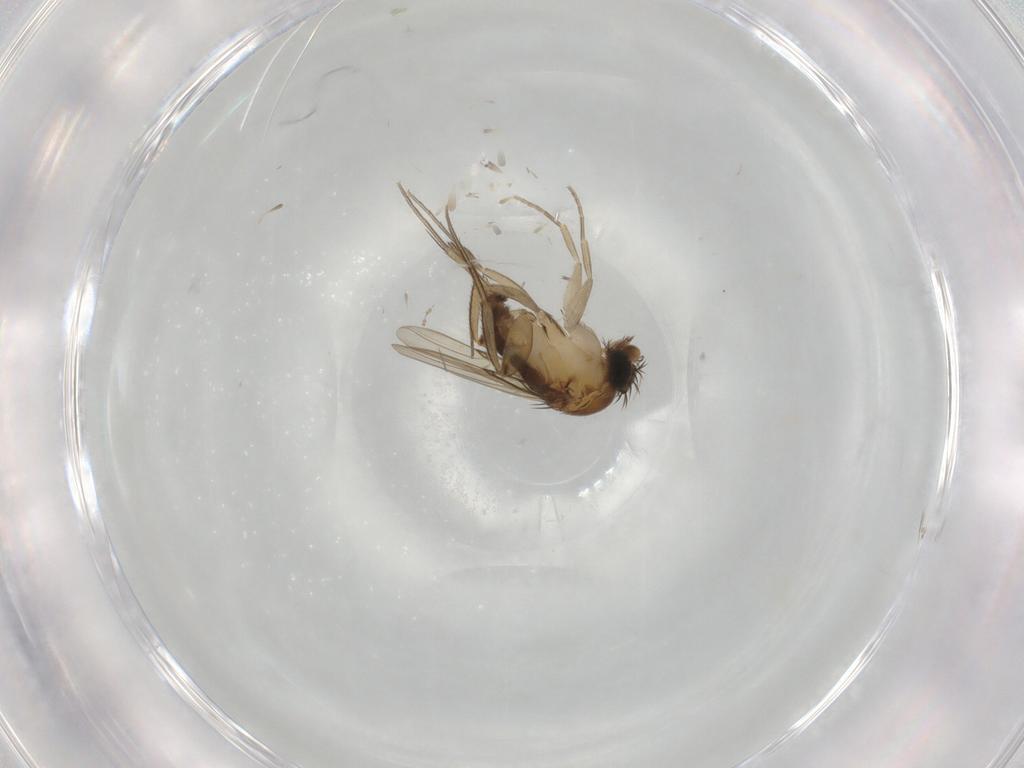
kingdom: Animalia
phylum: Arthropoda
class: Insecta
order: Diptera
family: Phoridae
